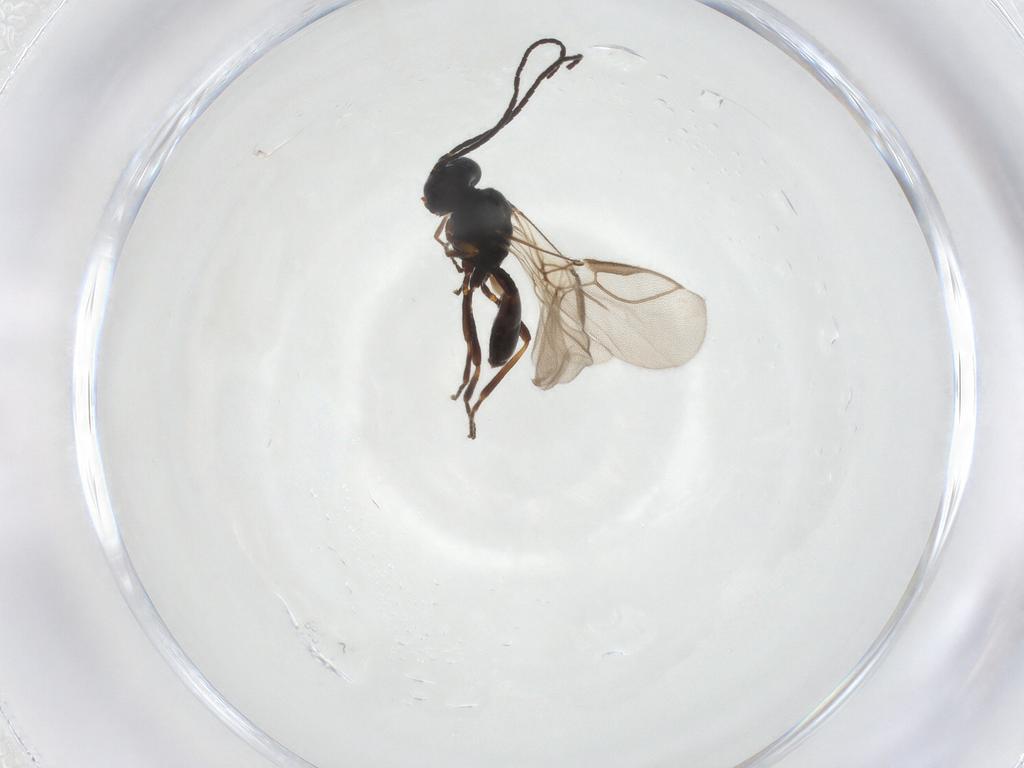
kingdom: Animalia
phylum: Arthropoda
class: Insecta
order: Hymenoptera
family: Braconidae
